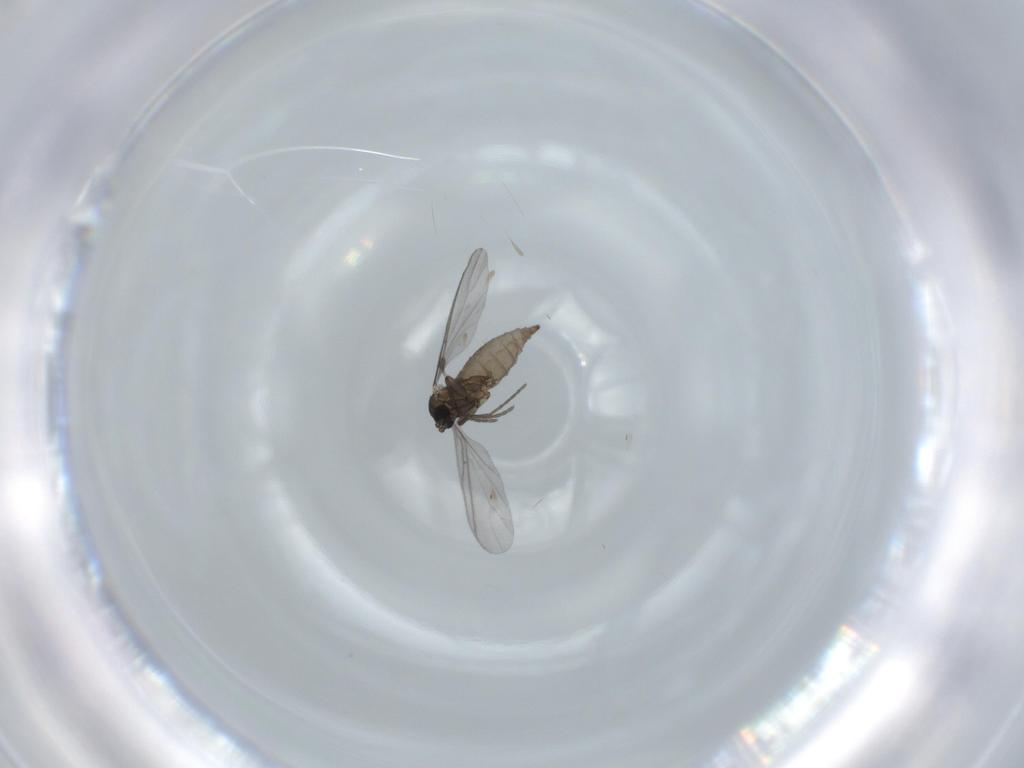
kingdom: Animalia
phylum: Arthropoda
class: Insecta
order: Diptera
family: Sciaridae
